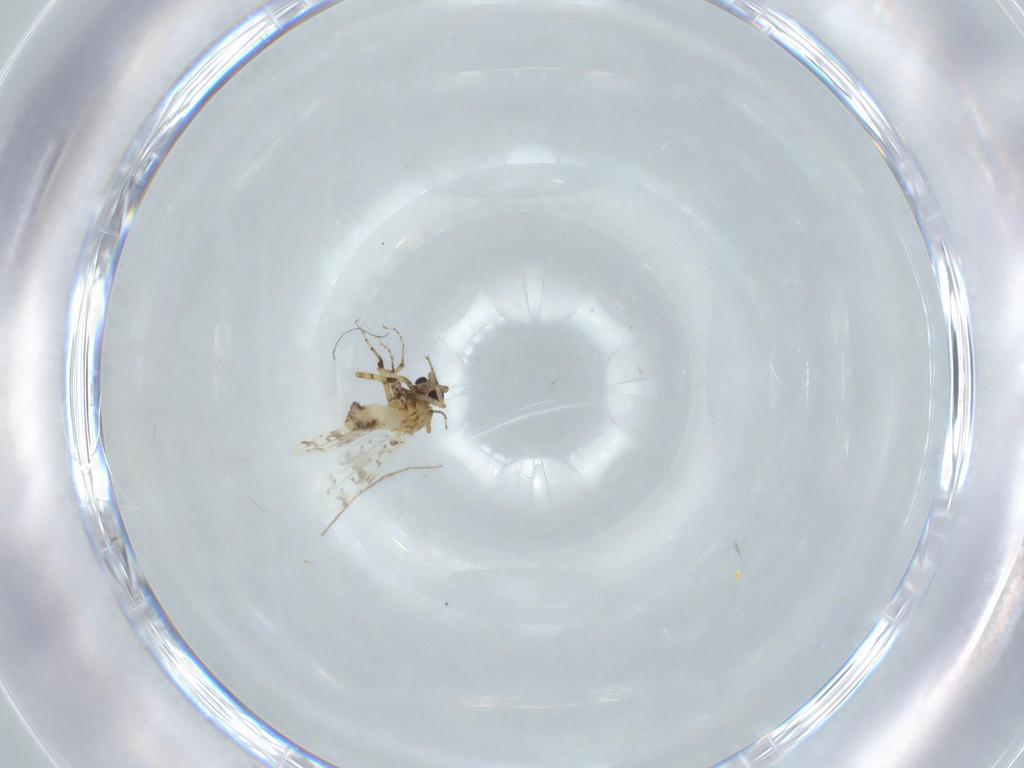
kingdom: Animalia
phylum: Arthropoda
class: Insecta
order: Diptera
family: Ceratopogonidae
